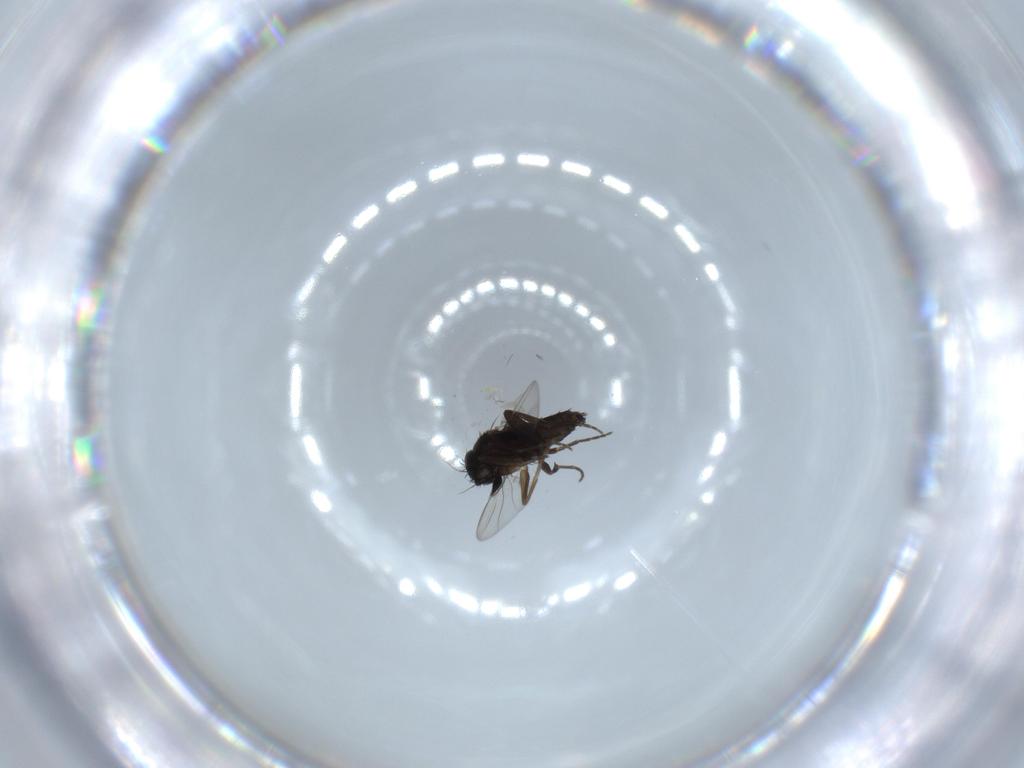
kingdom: Animalia
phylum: Arthropoda
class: Insecta
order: Diptera
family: Phoridae
